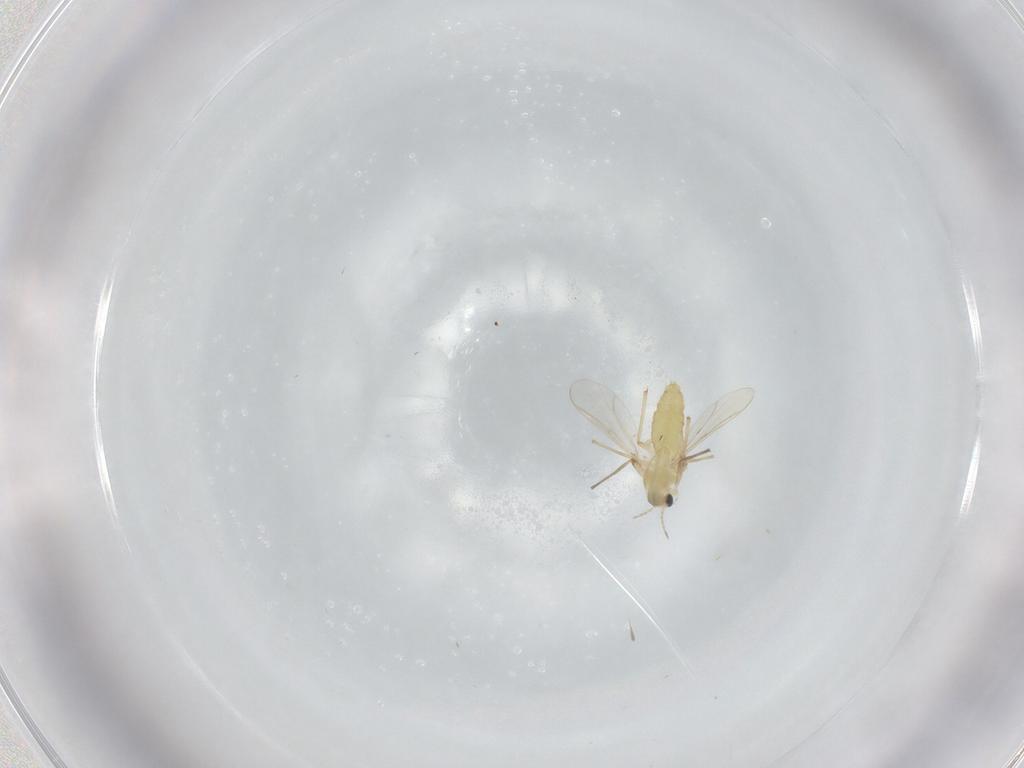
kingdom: Animalia
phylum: Arthropoda
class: Insecta
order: Diptera
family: Chironomidae
